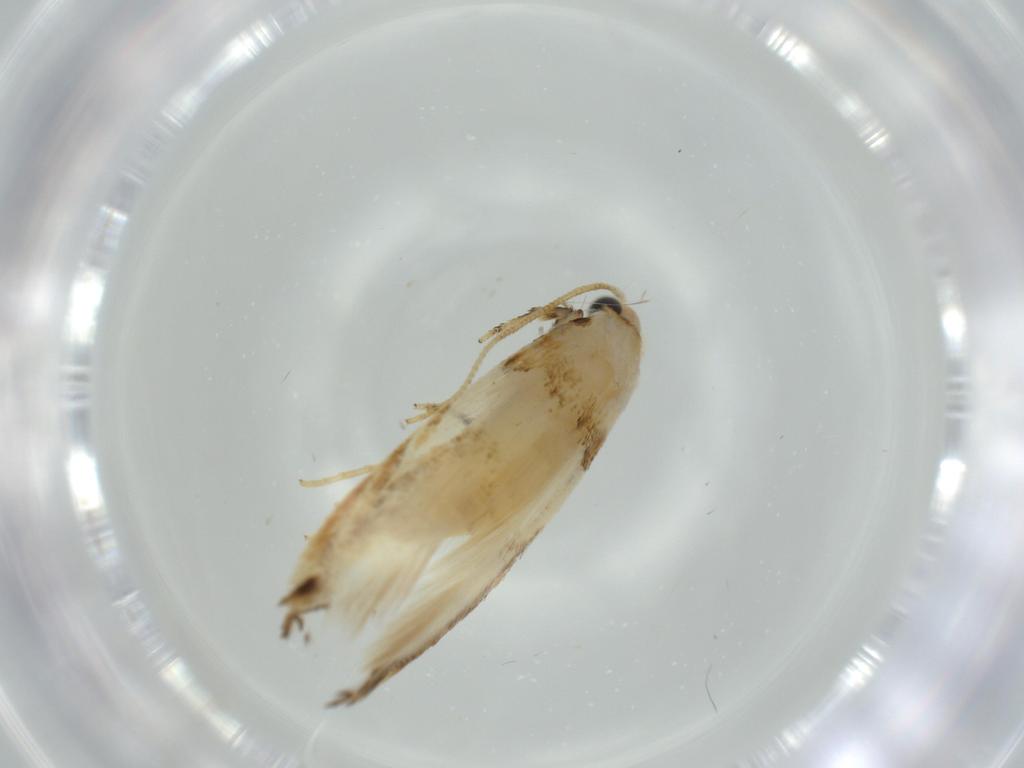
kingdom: Animalia
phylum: Arthropoda
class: Insecta
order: Lepidoptera
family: Tineidae
